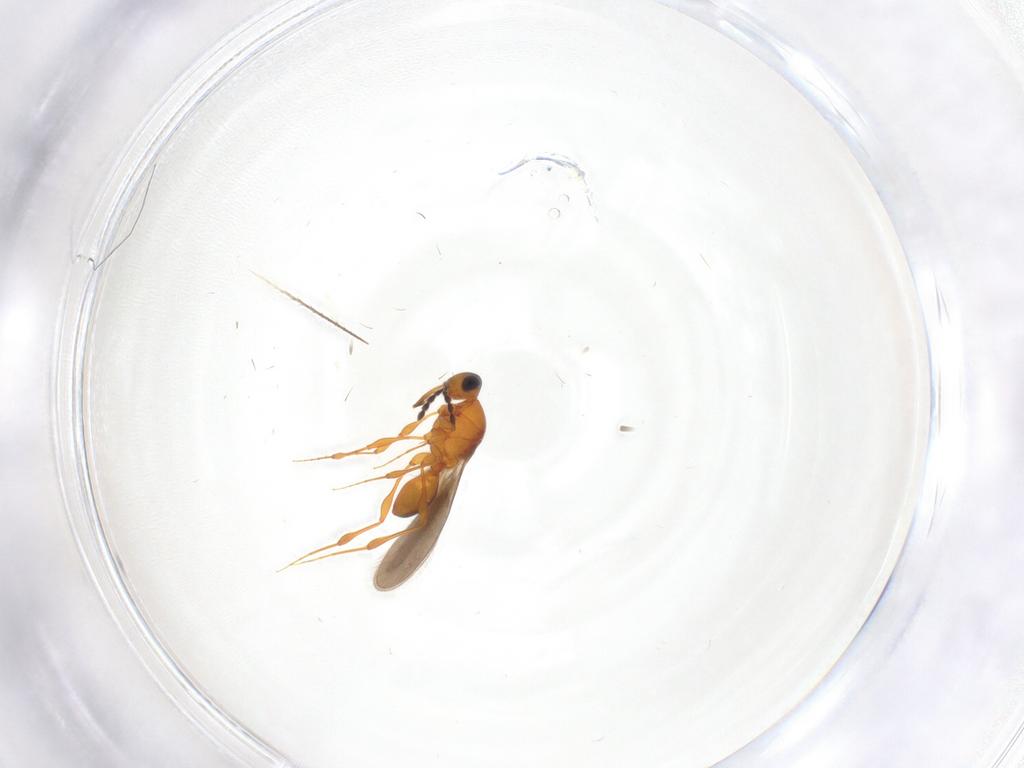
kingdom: Animalia
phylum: Arthropoda
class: Insecta
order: Hymenoptera
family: Platygastridae
